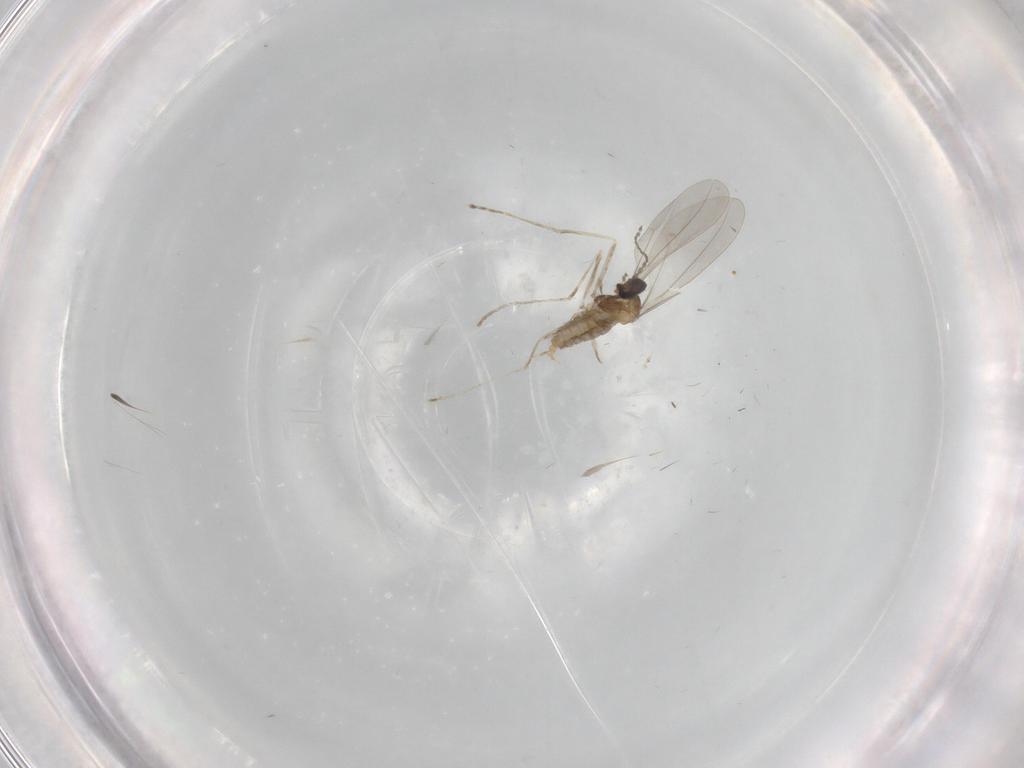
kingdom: Animalia
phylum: Arthropoda
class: Insecta
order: Diptera
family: Cecidomyiidae
